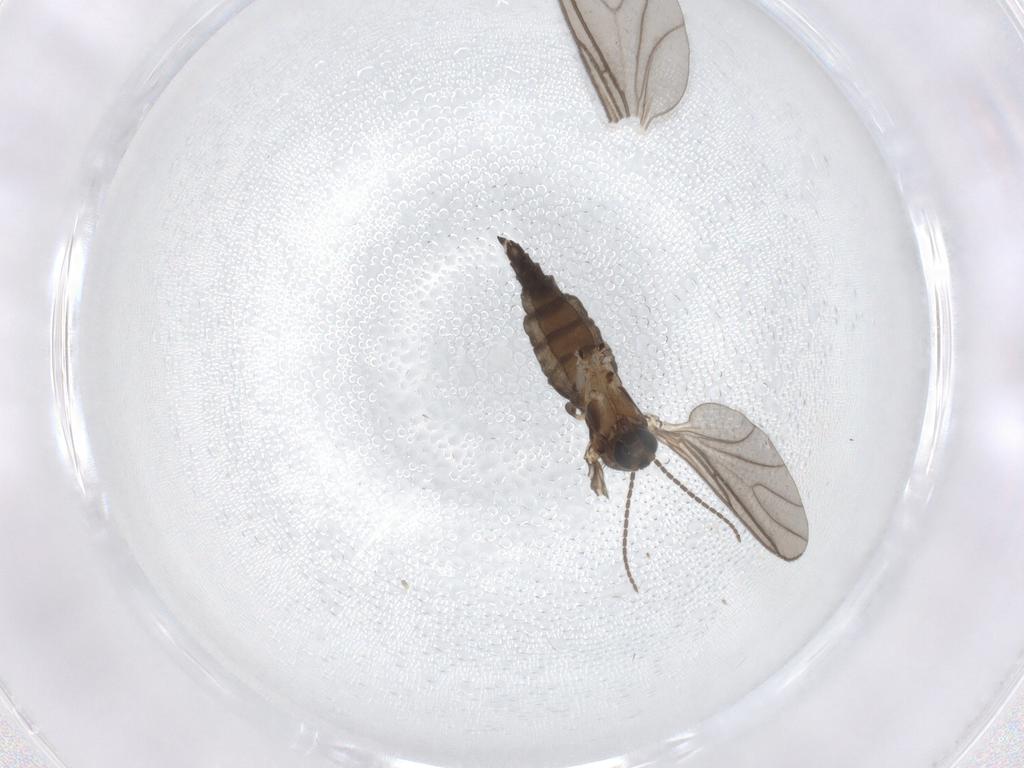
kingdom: Animalia
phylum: Arthropoda
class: Insecta
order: Diptera
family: Sciaridae
